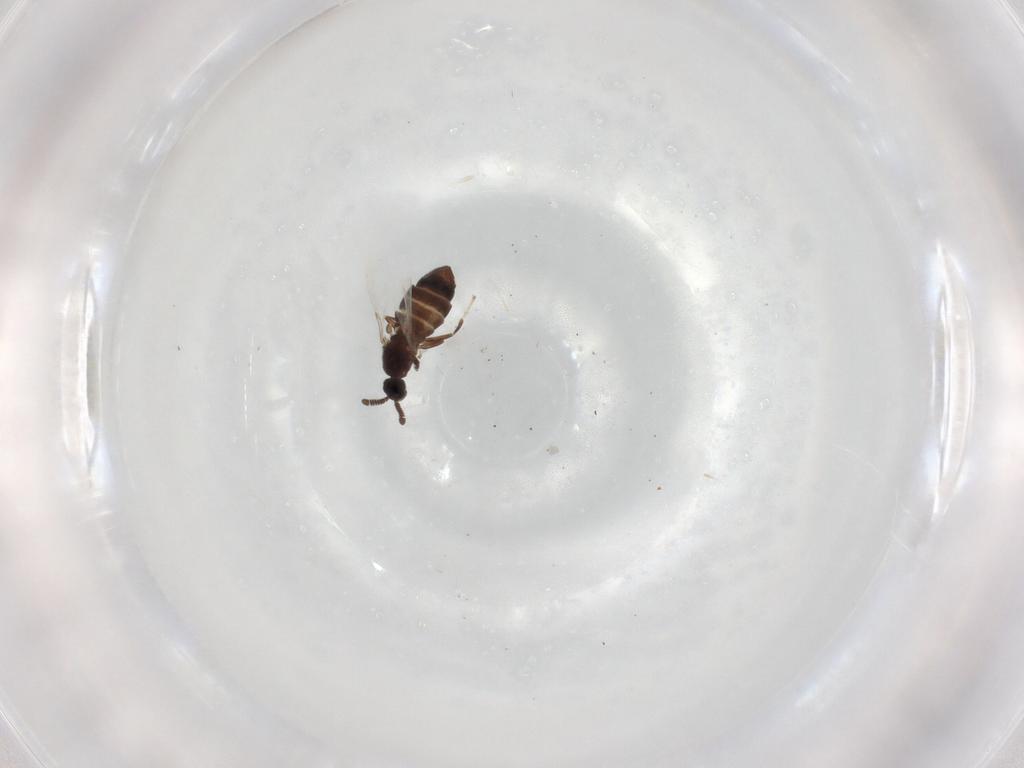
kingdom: Animalia
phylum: Arthropoda
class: Insecta
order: Diptera
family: Scatopsidae
